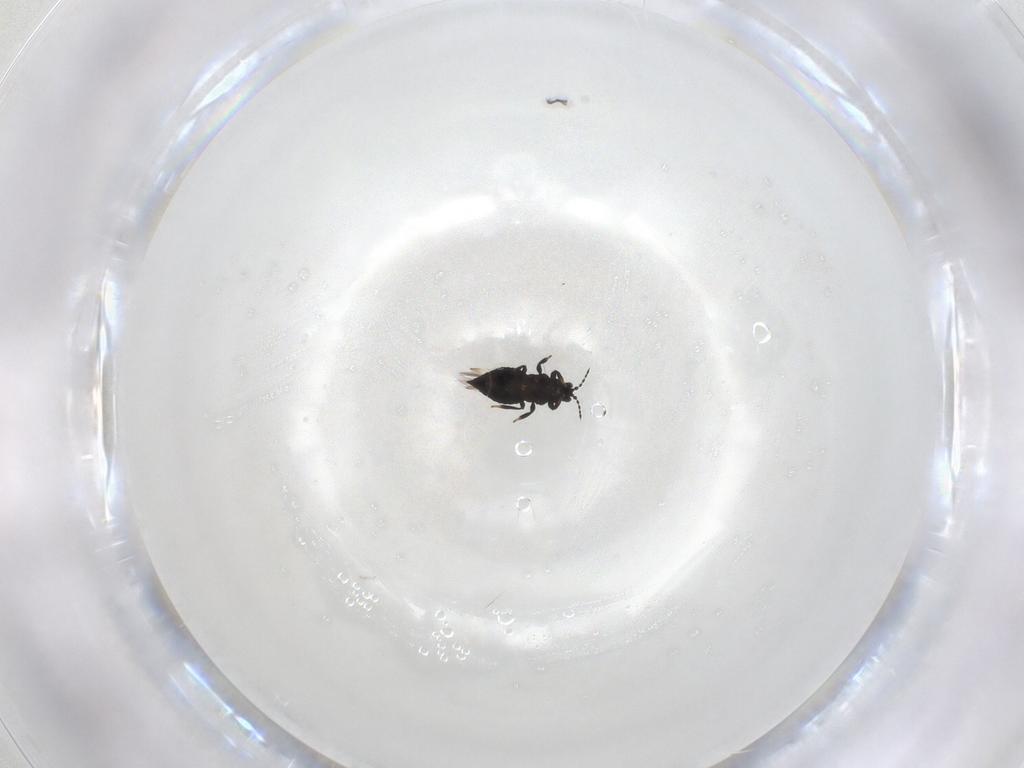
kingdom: Animalia
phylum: Arthropoda
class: Insecta
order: Thysanoptera
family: Thripidae
